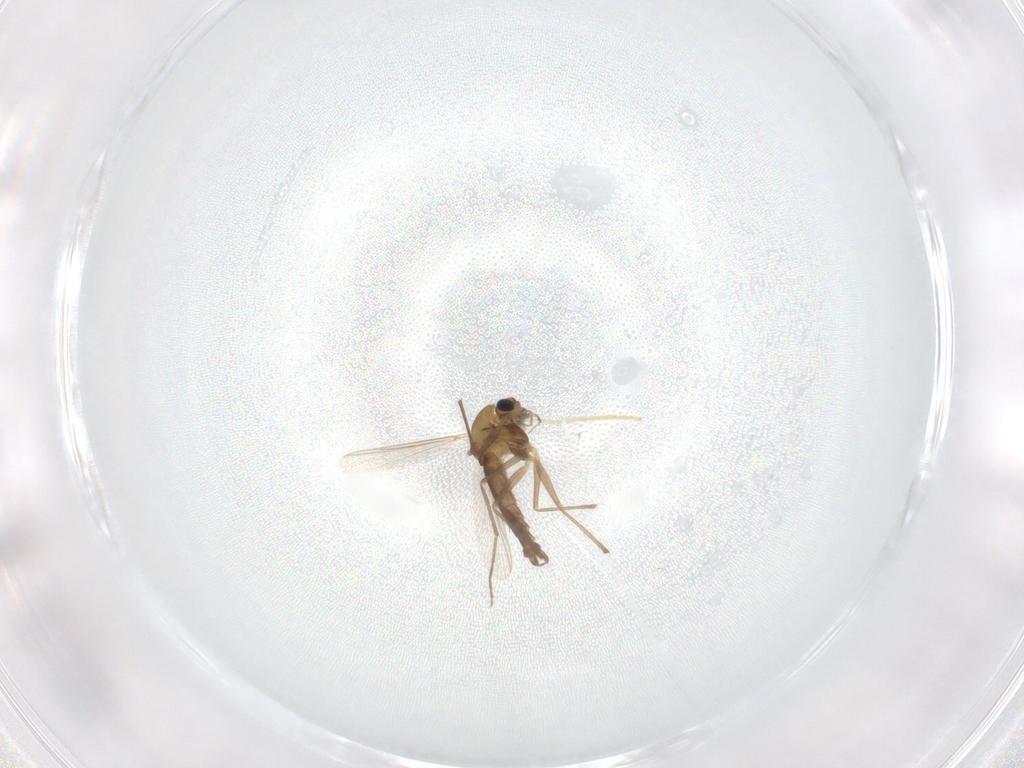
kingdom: Animalia
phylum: Arthropoda
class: Insecta
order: Diptera
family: Chironomidae
